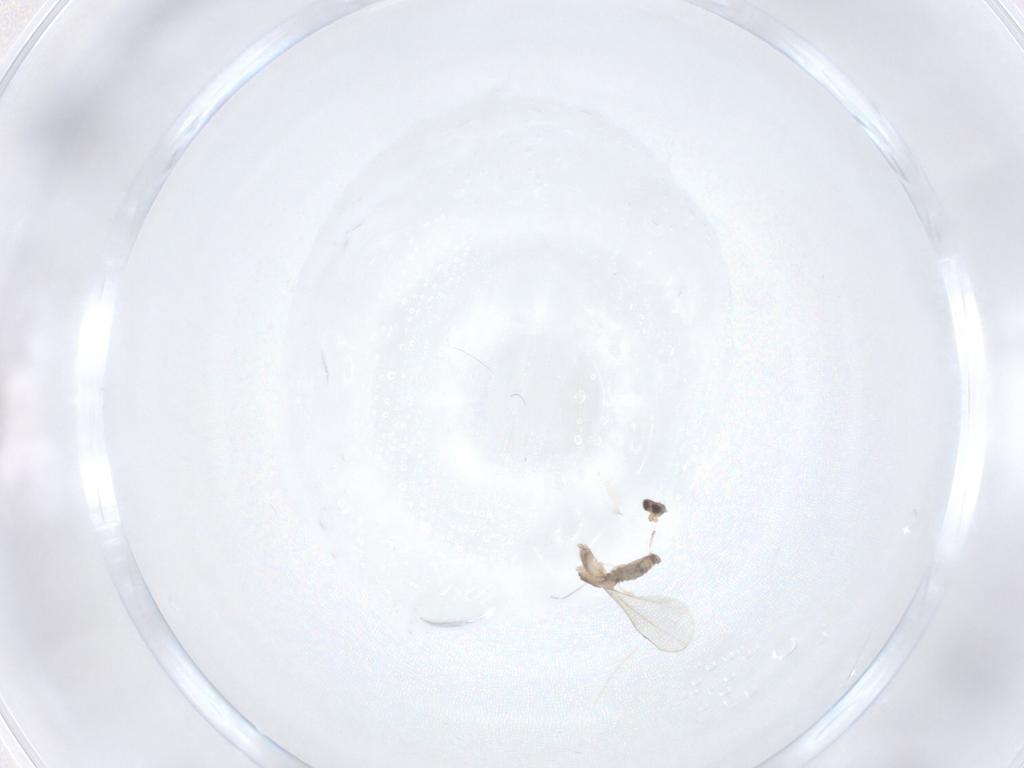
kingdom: Animalia
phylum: Arthropoda
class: Insecta
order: Diptera
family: Cecidomyiidae
